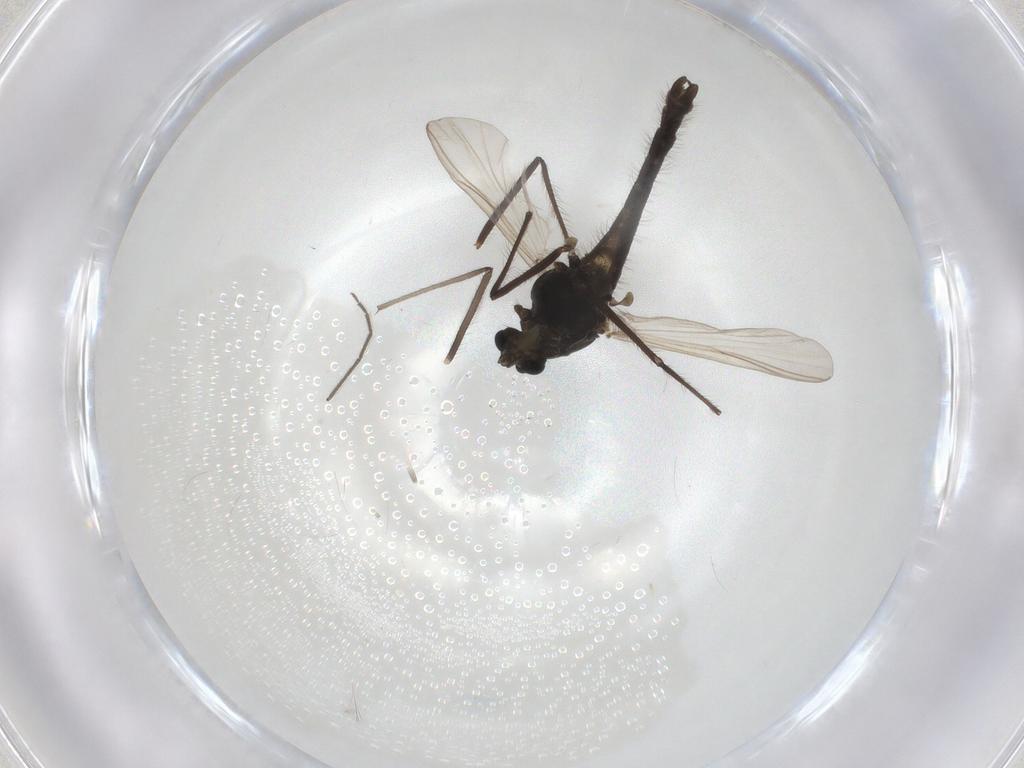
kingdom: Animalia
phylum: Arthropoda
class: Insecta
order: Diptera
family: Chironomidae
